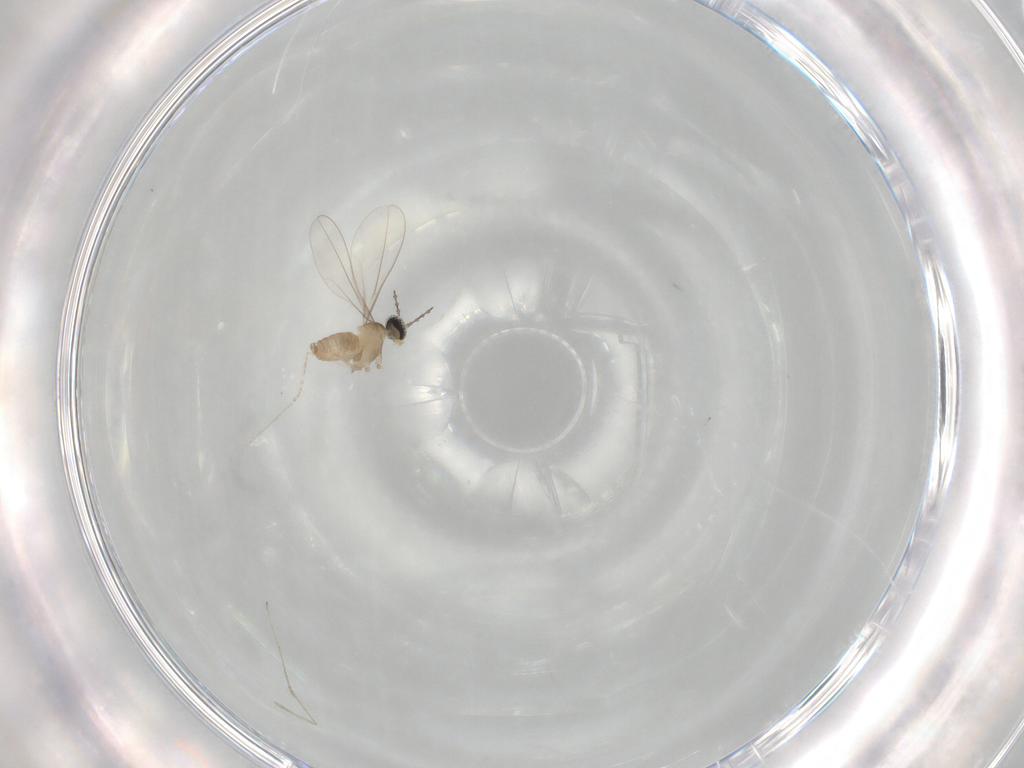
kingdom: Animalia
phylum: Arthropoda
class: Insecta
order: Diptera
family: Cecidomyiidae
